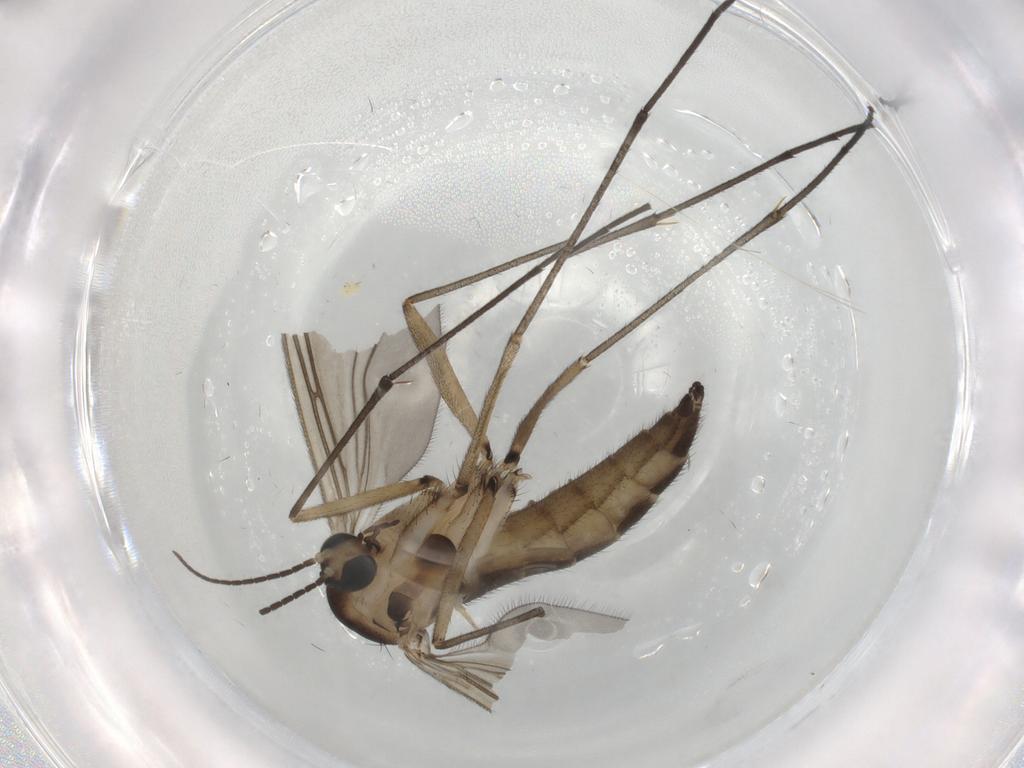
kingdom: Animalia
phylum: Arthropoda
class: Insecta
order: Diptera
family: Sciaridae
